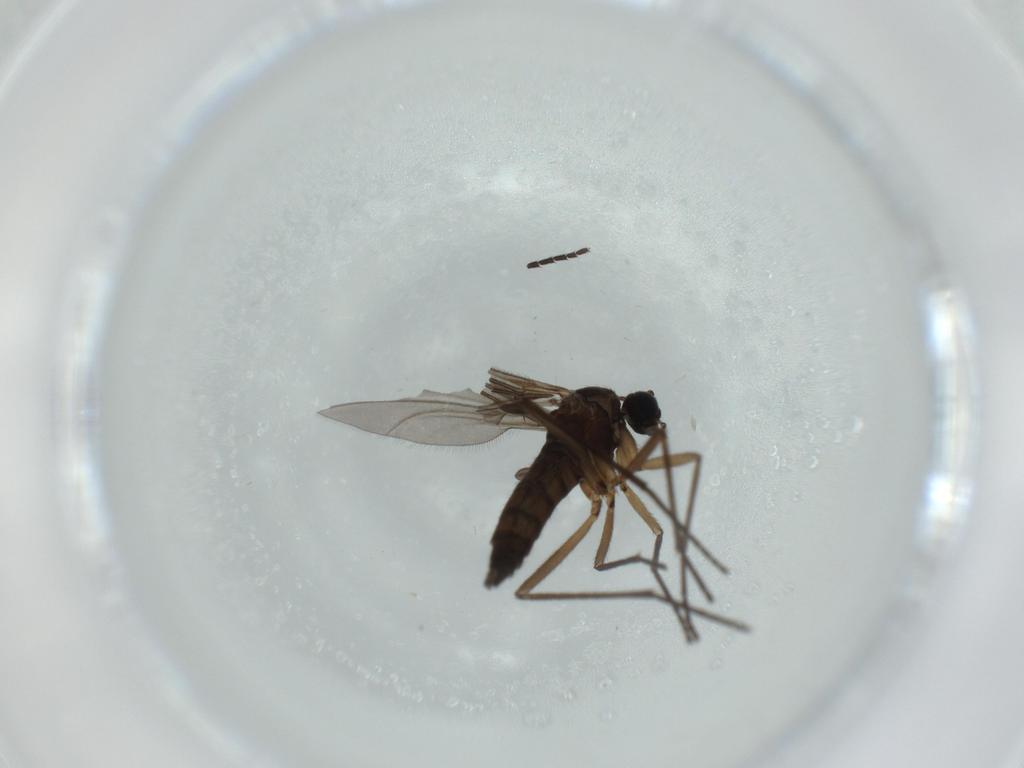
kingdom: Animalia
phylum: Arthropoda
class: Insecta
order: Diptera
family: Sciaridae
